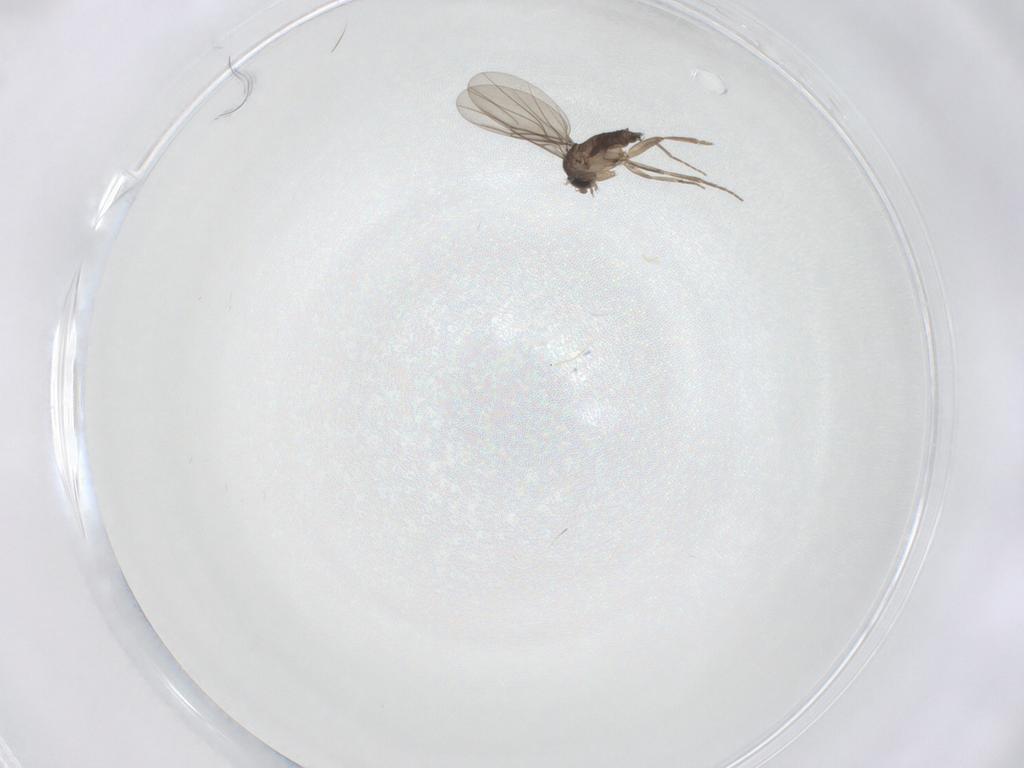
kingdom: Animalia
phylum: Arthropoda
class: Insecta
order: Diptera
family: Phoridae
